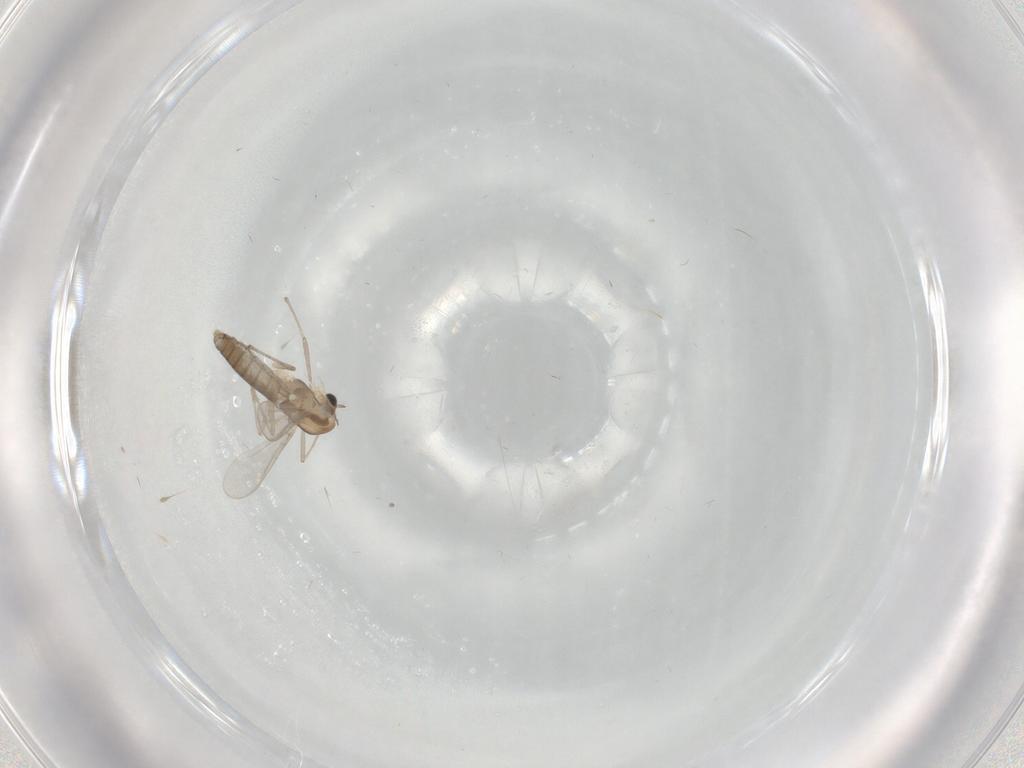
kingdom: Animalia
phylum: Arthropoda
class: Insecta
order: Diptera
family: Chironomidae
